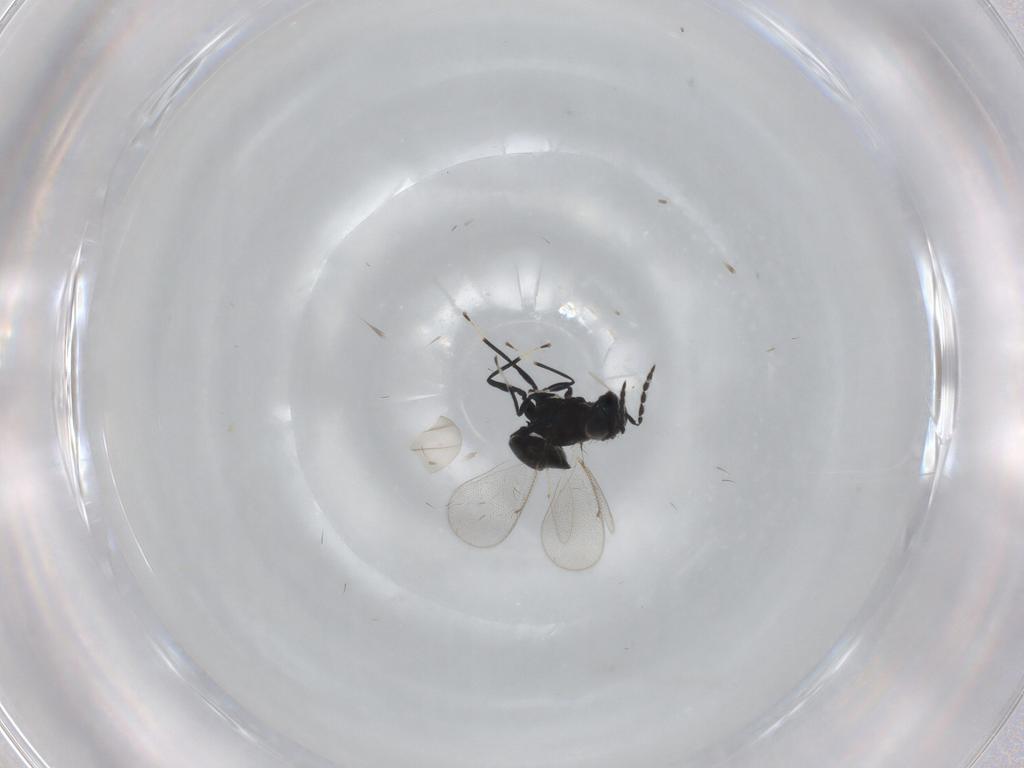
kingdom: Animalia
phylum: Arthropoda
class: Insecta
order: Hymenoptera
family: Eulophidae
